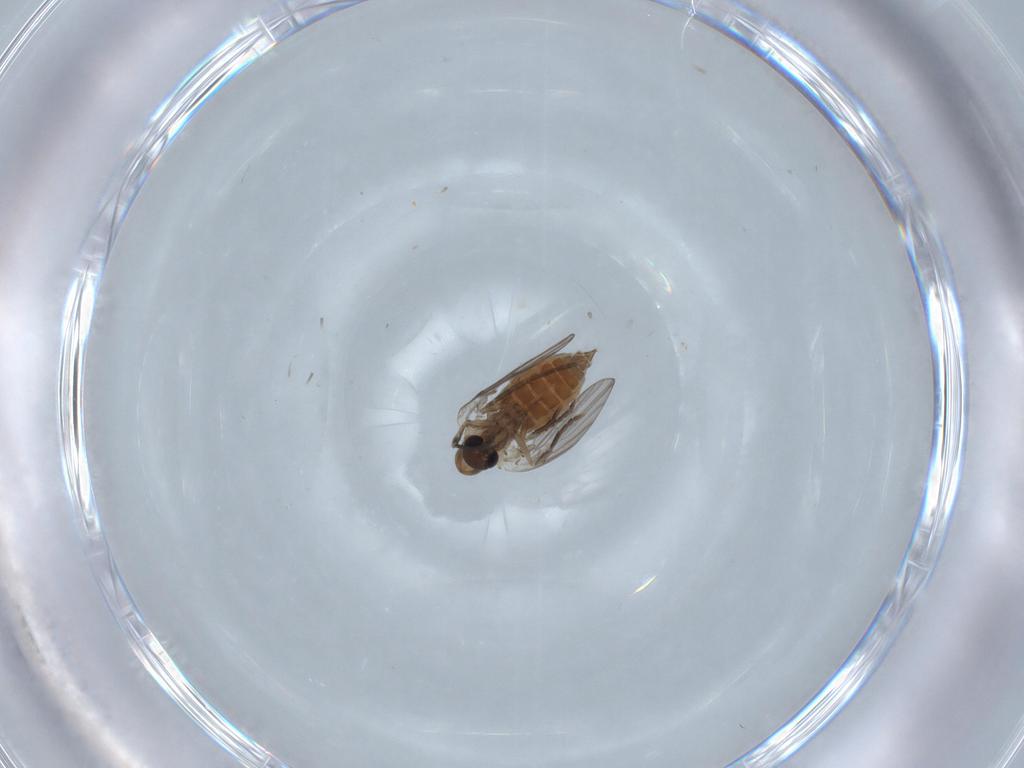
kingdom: Animalia
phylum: Arthropoda
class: Insecta
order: Diptera
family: Psychodidae
